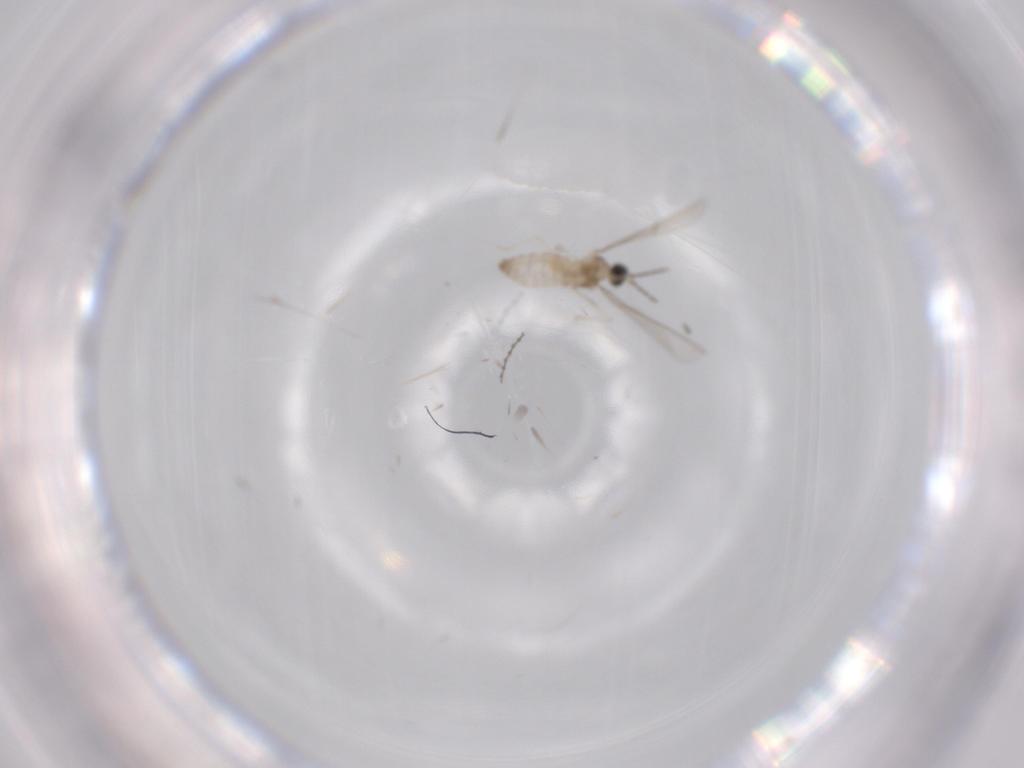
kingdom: Animalia
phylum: Arthropoda
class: Insecta
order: Diptera
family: Cecidomyiidae
